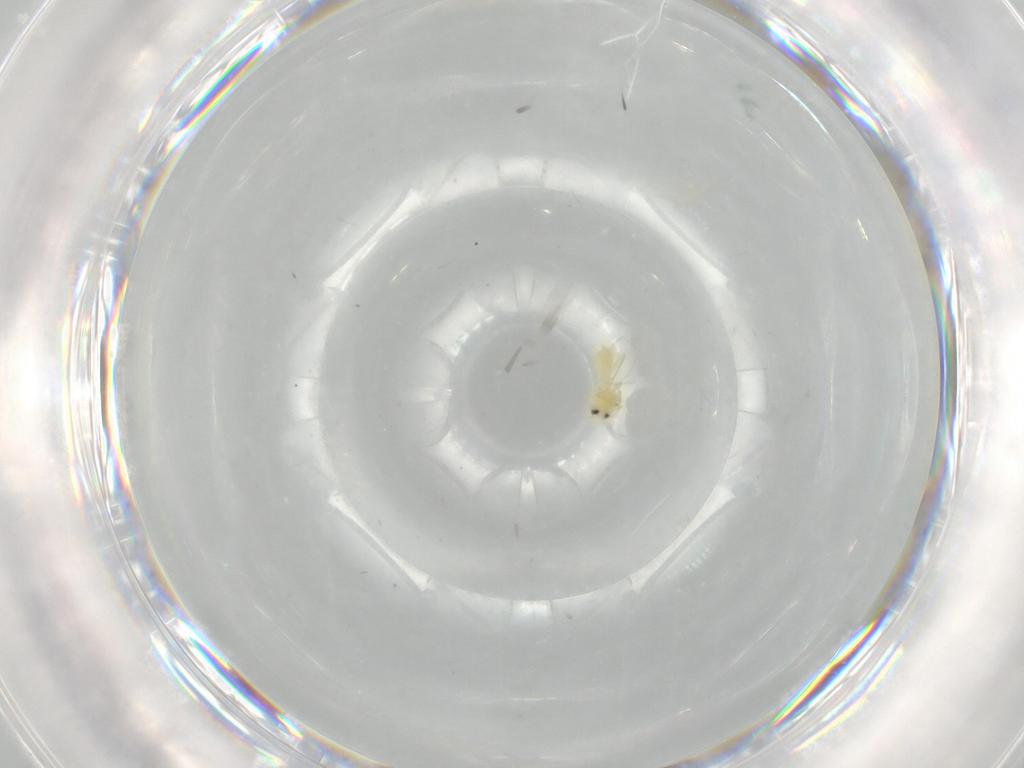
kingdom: Animalia
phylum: Arthropoda
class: Insecta
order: Hemiptera
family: Aleyrodidae
